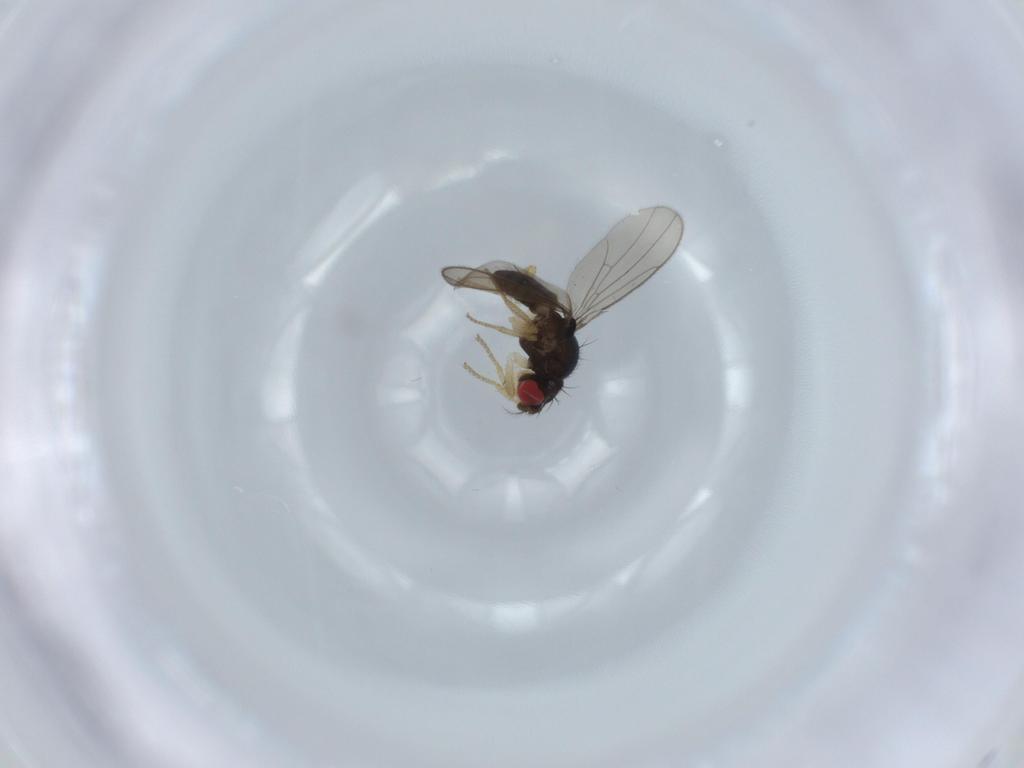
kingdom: Animalia
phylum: Arthropoda
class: Insecta
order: Diptera
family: Drosophilidae
